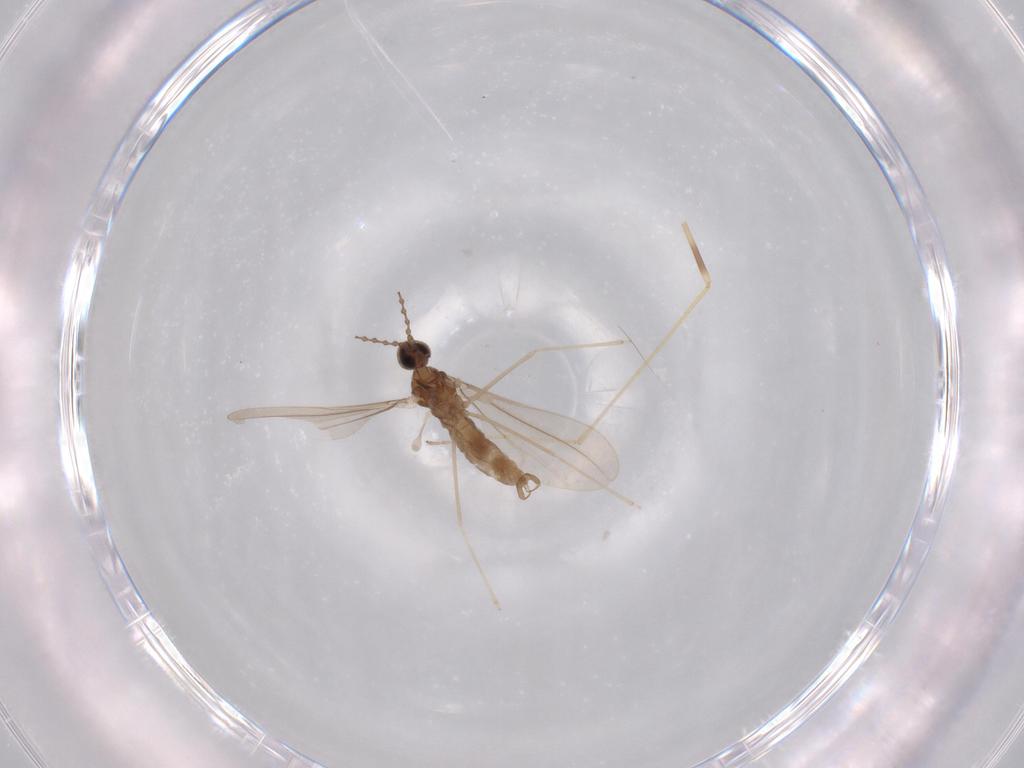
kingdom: Animalia
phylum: Arthropoda
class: Insecta
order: Diptera
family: Cecidomyiidae
